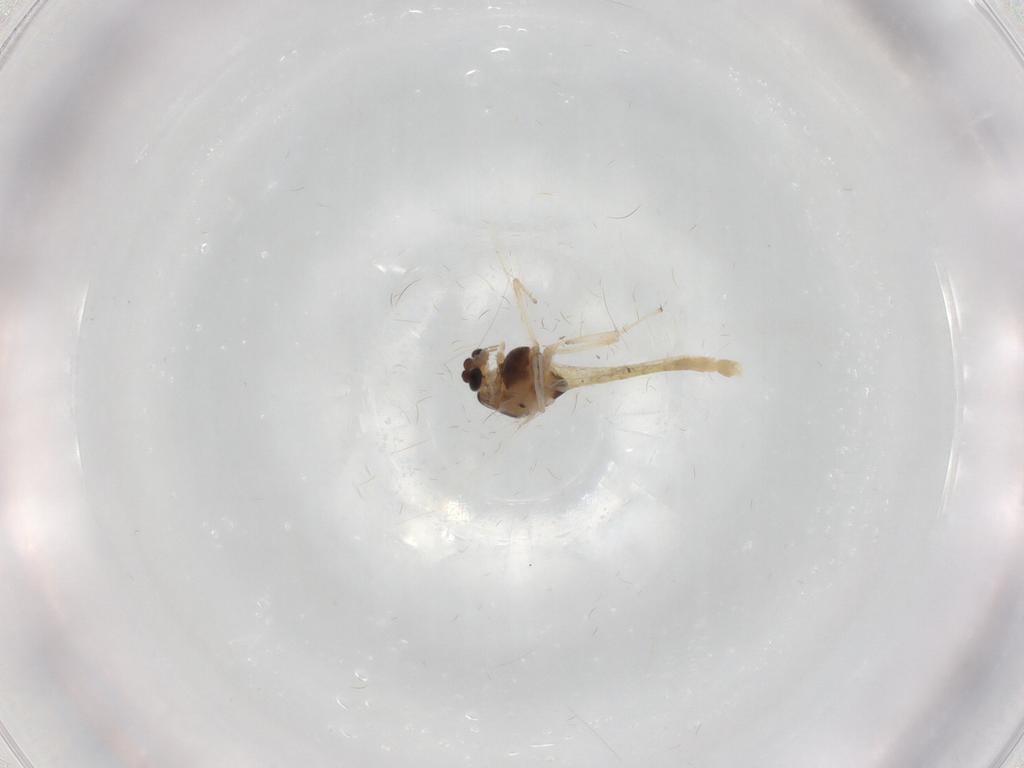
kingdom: Animalia
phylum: Arthropoda
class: Insecta
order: Diptera
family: Chironomidae
